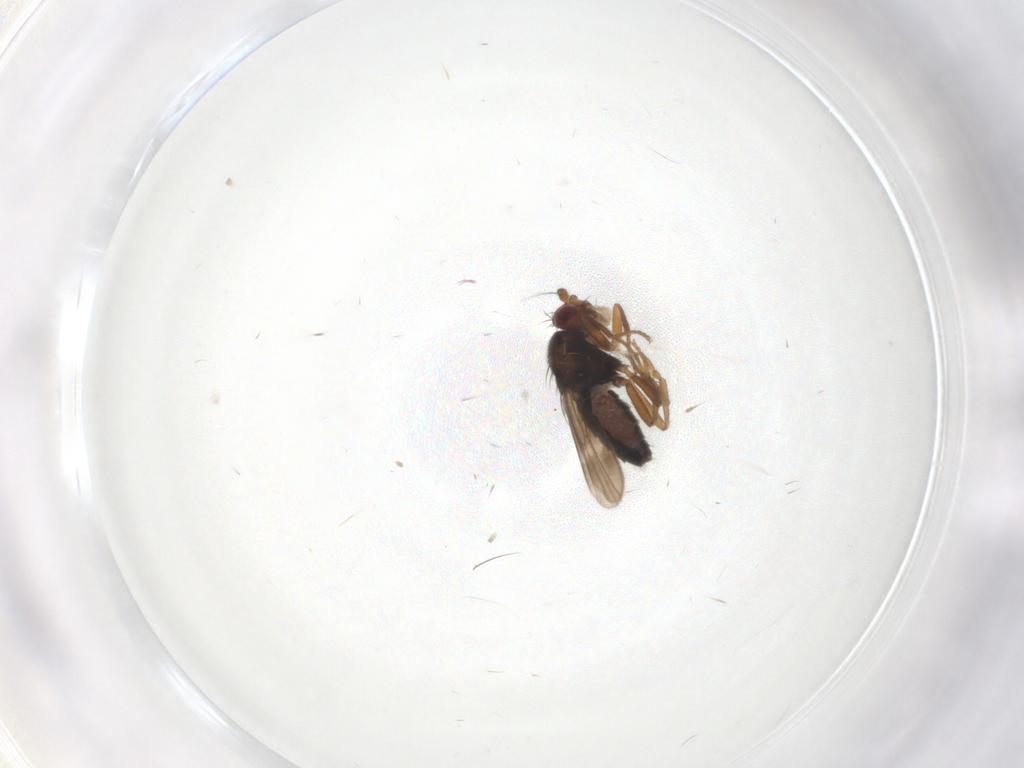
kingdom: Animalia
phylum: Arthropoda
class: Insecta
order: Diptera
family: Sphaeroceridae
